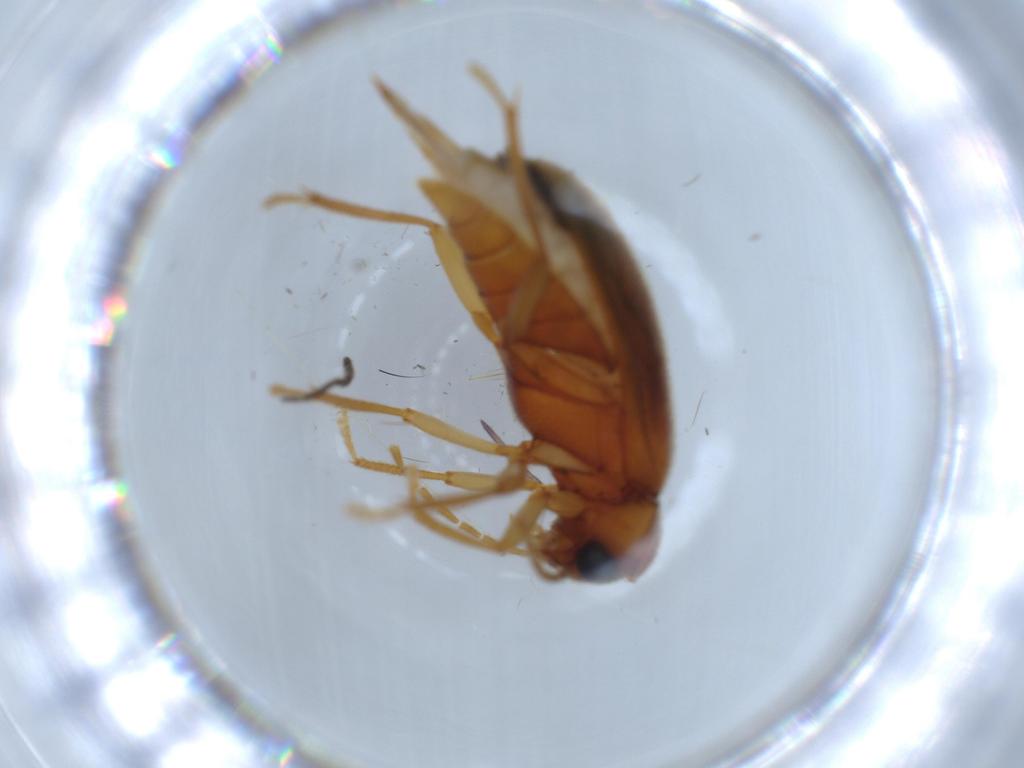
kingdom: Animalia
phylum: Arthropoda
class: Insecta
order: Coleoptera
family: Ptilodactylidae
